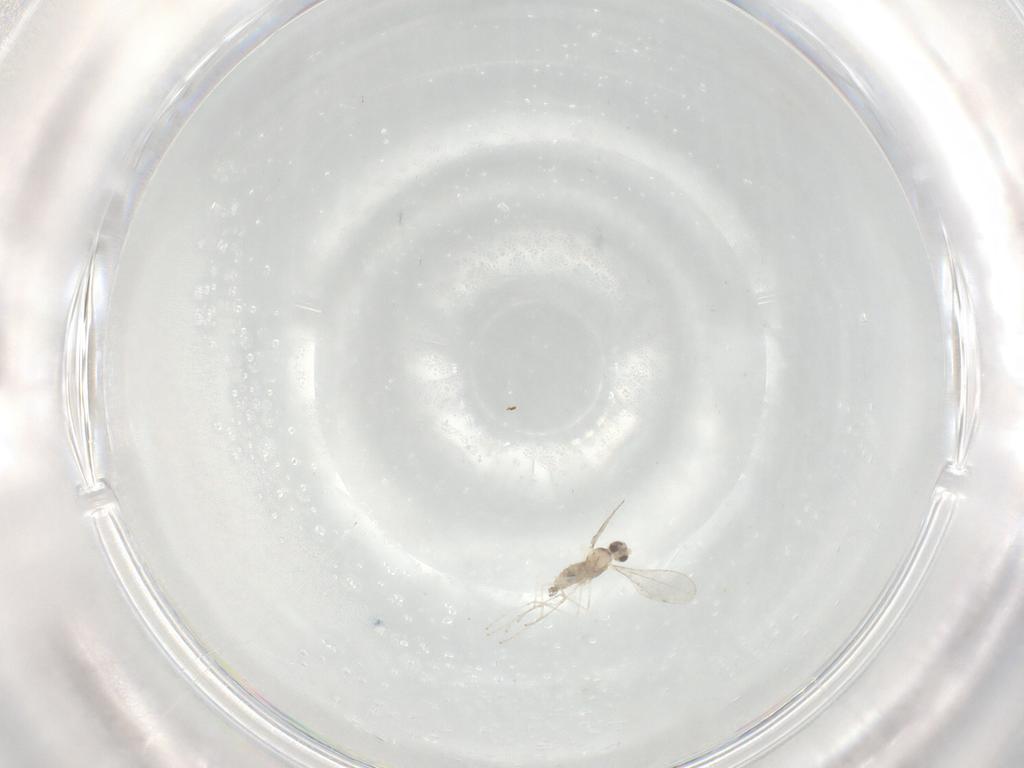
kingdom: Animalia
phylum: Arthropoda
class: Insecta
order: Diptera
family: Cecidomyiidae
